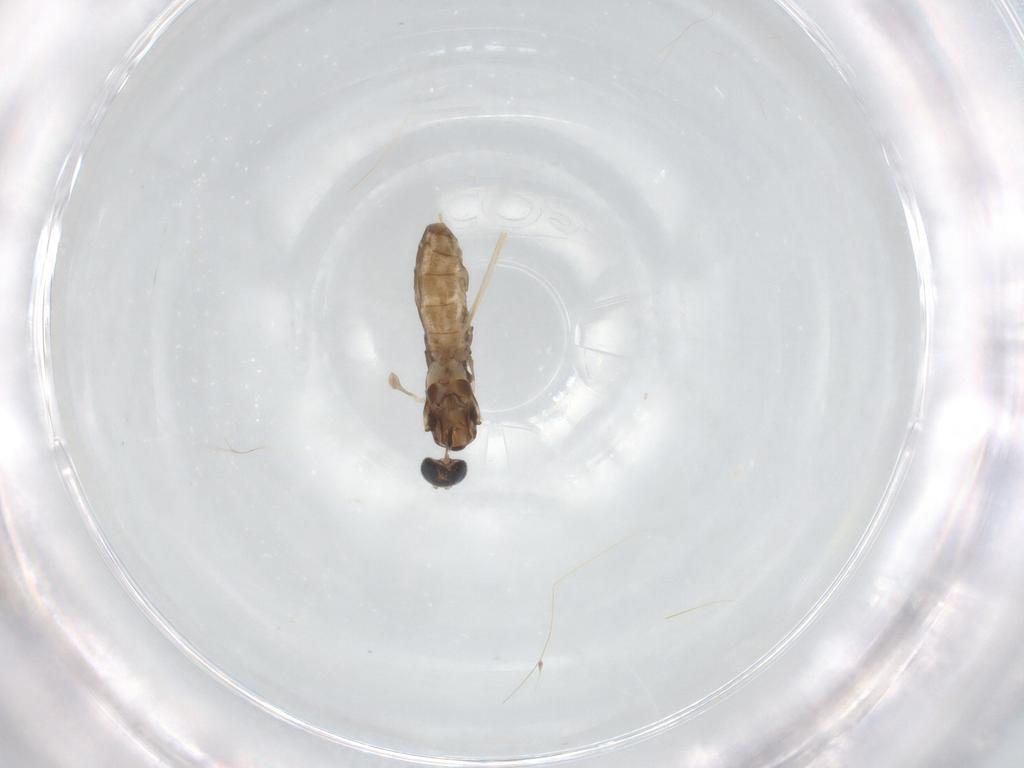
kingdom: Animalia
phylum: Arthropoda
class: Insecta
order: Diptera
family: Cecidomyiidae
